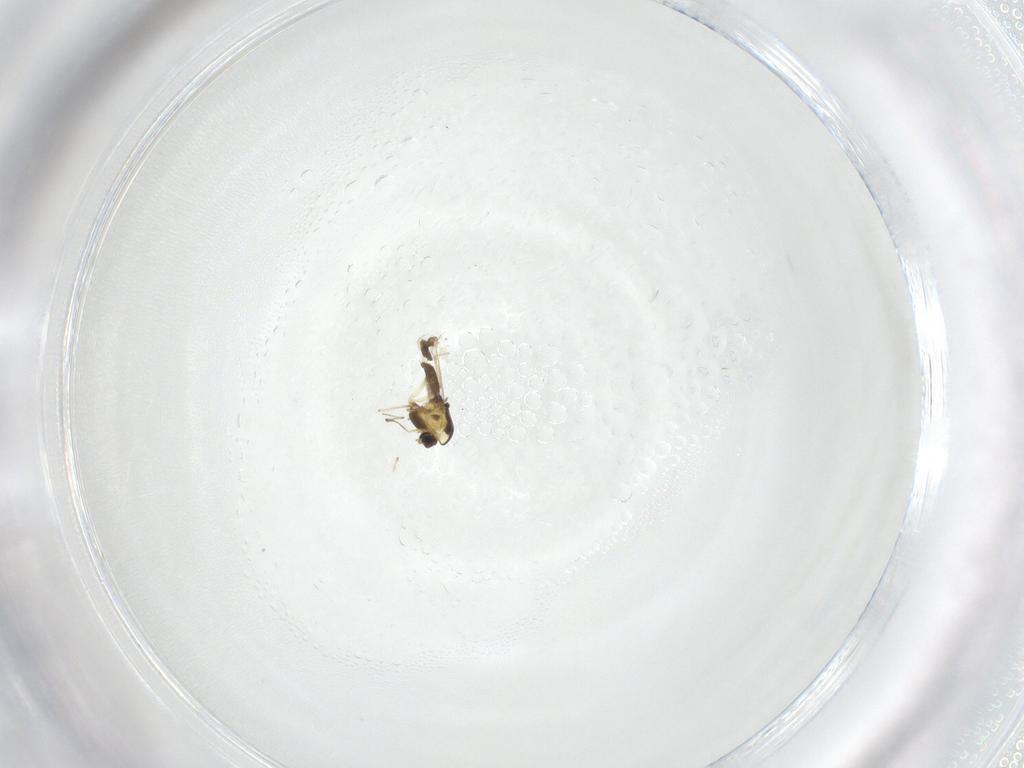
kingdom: Animalia
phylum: Arthropoda
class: Insecta
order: Diptera
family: Chironomidae
